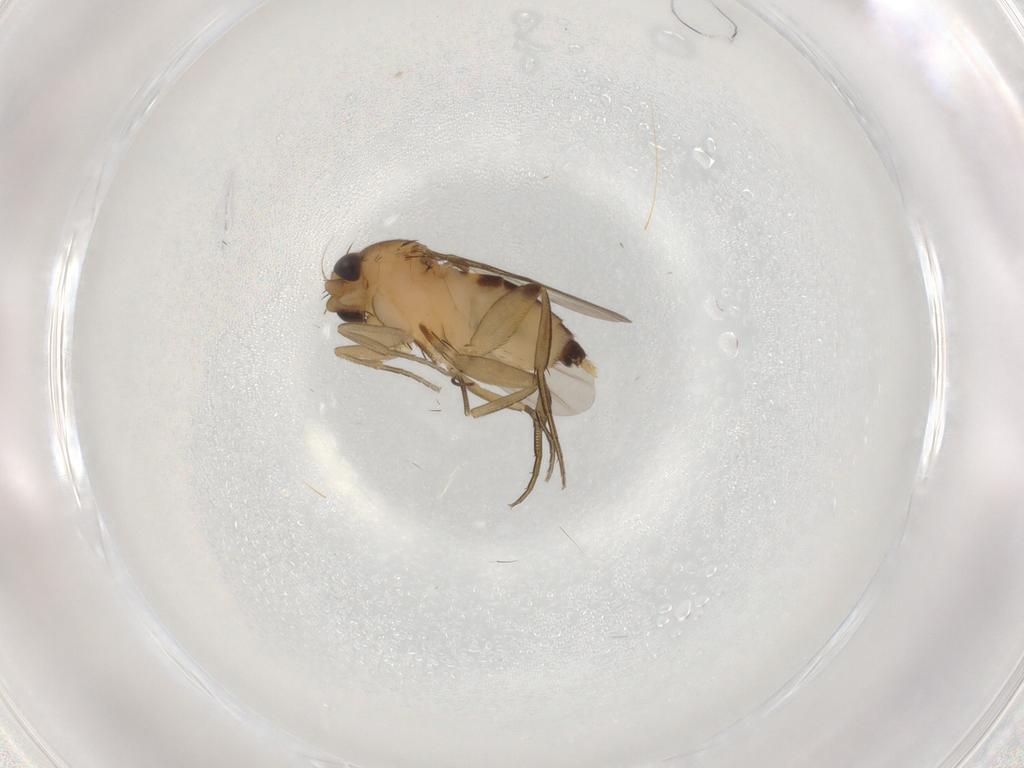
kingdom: Animalia
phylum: Arthropoda
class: Insecta
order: Diptera
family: Phoridae
